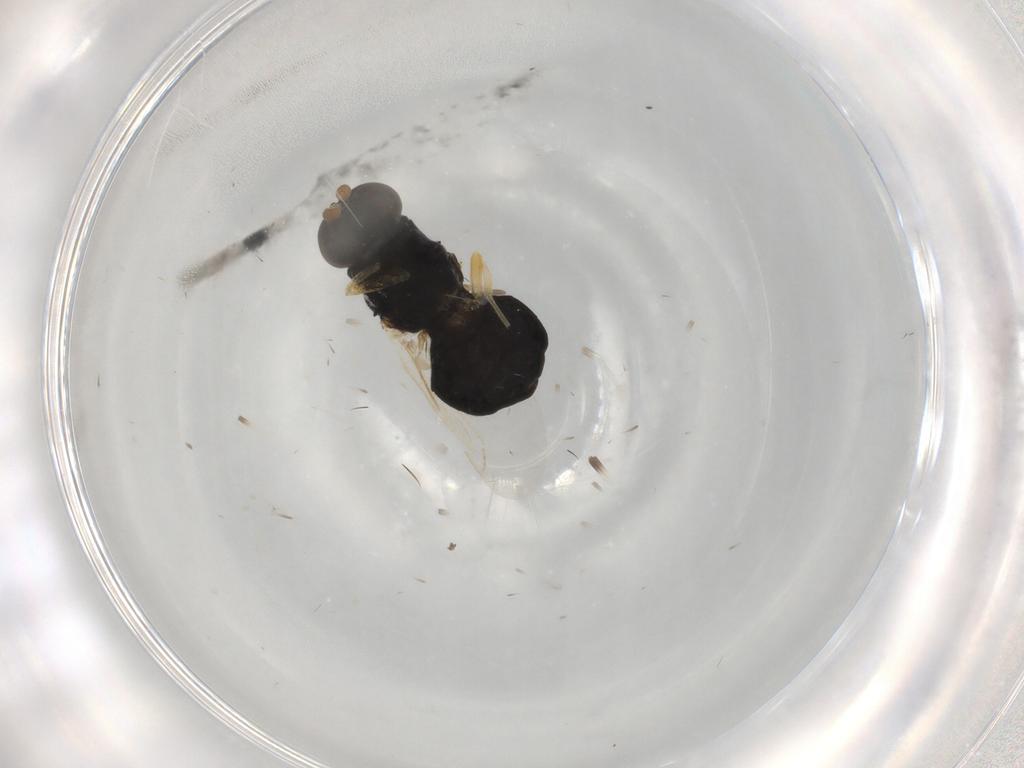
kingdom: Animalia
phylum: Arthropoda
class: Insecta
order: Diptera
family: Stratiomyidae
